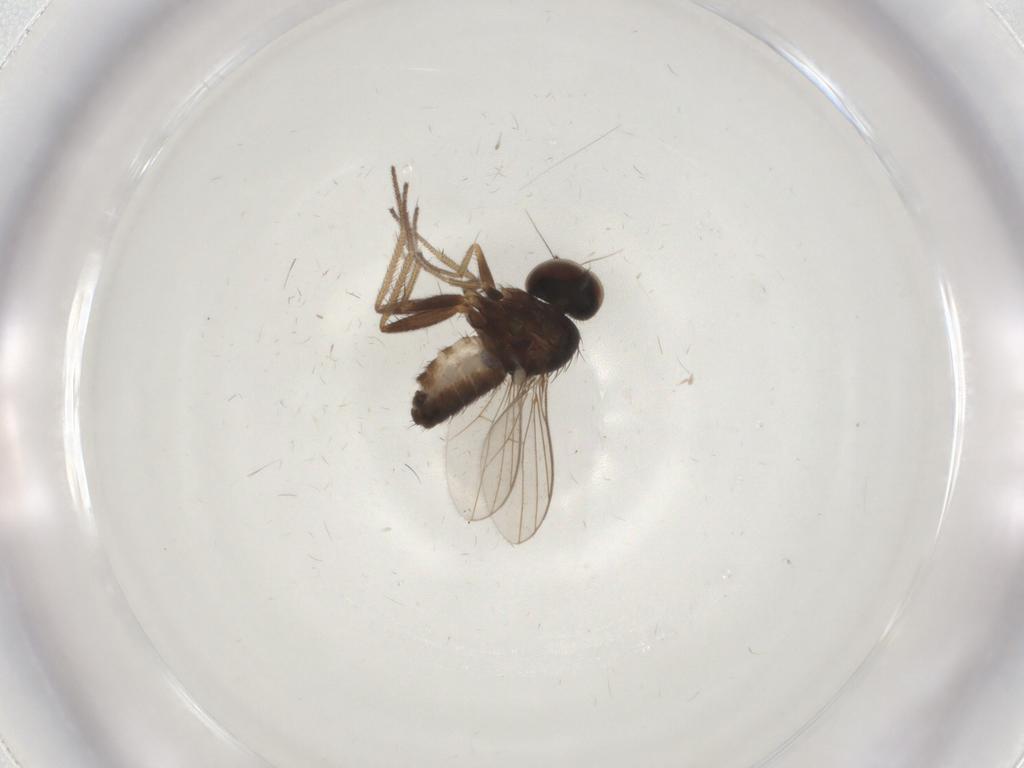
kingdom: Animalia
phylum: Arthropoda
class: Insecta
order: Diptera
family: Cecidomyiidae
